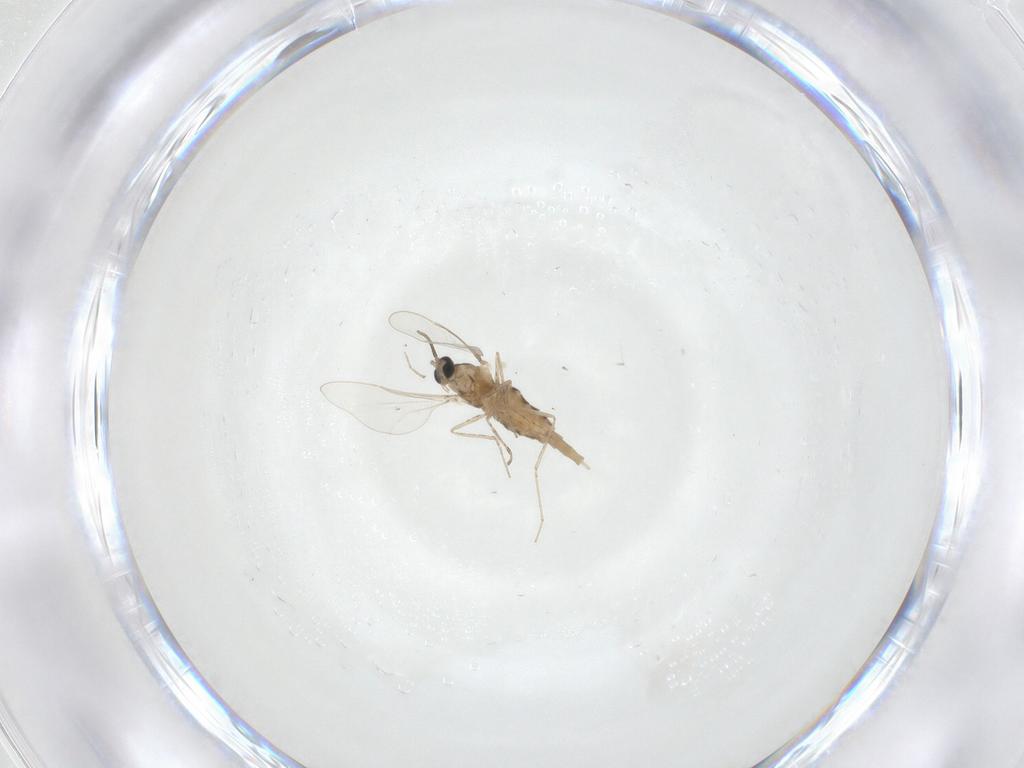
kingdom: Animalia
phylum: Arthropoda
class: Insecta
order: Diptera
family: Cecidomyiidae
